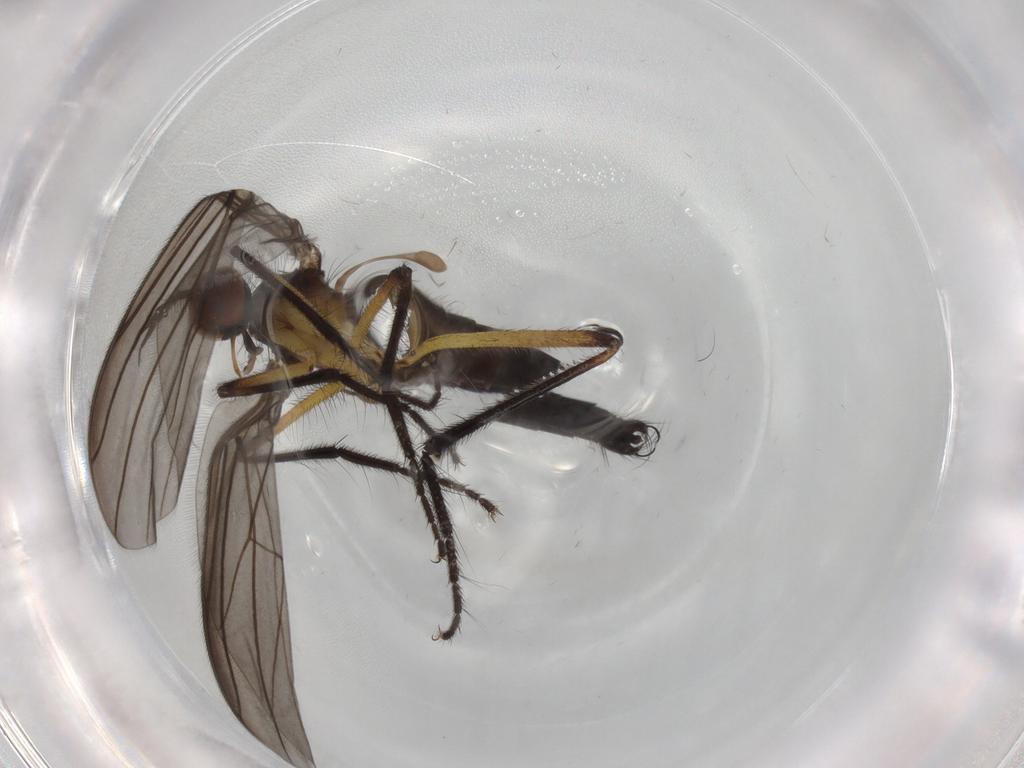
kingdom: Animalia
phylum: Arthropoda
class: Insecta
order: Diptera
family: Empididae
